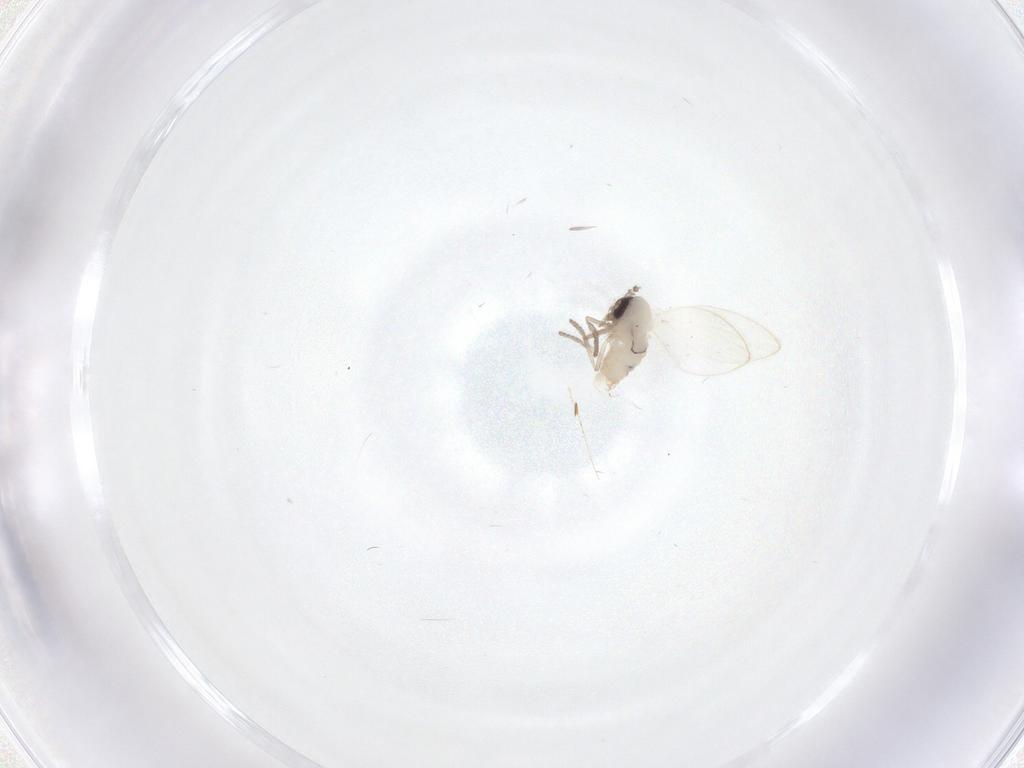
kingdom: Animalia
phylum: Arthropoda
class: Insecta
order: Diptera
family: Psychodidae
